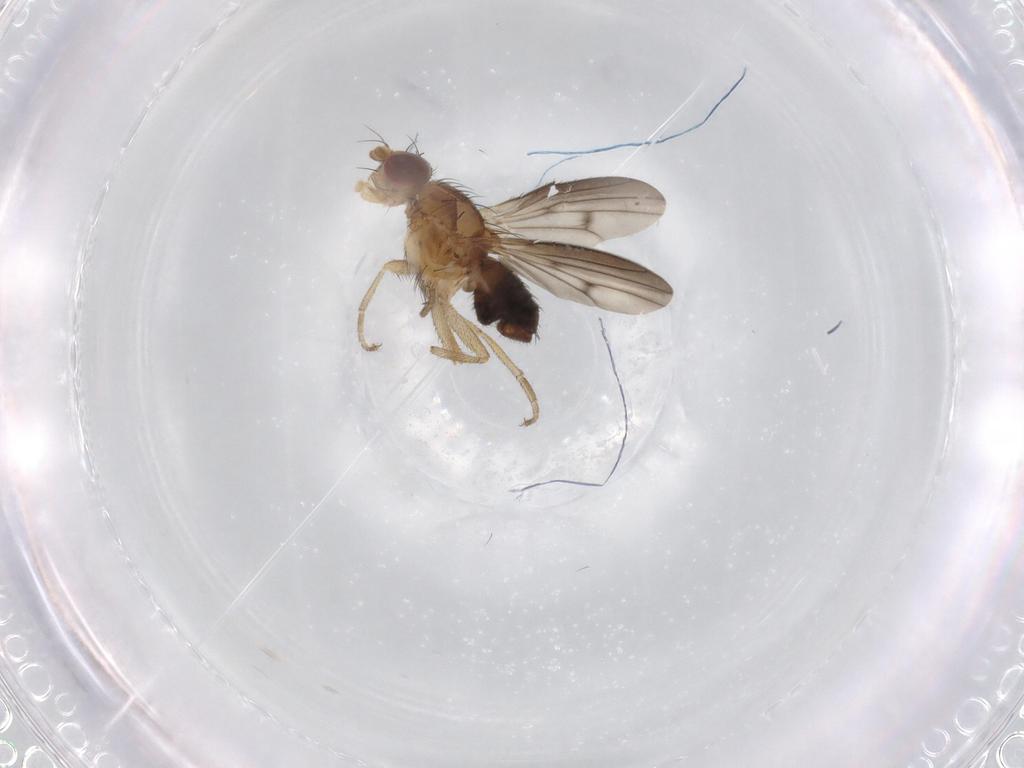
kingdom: Animalia
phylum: Arthropoda
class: Insecta
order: Diptera
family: Heleomyzidae
